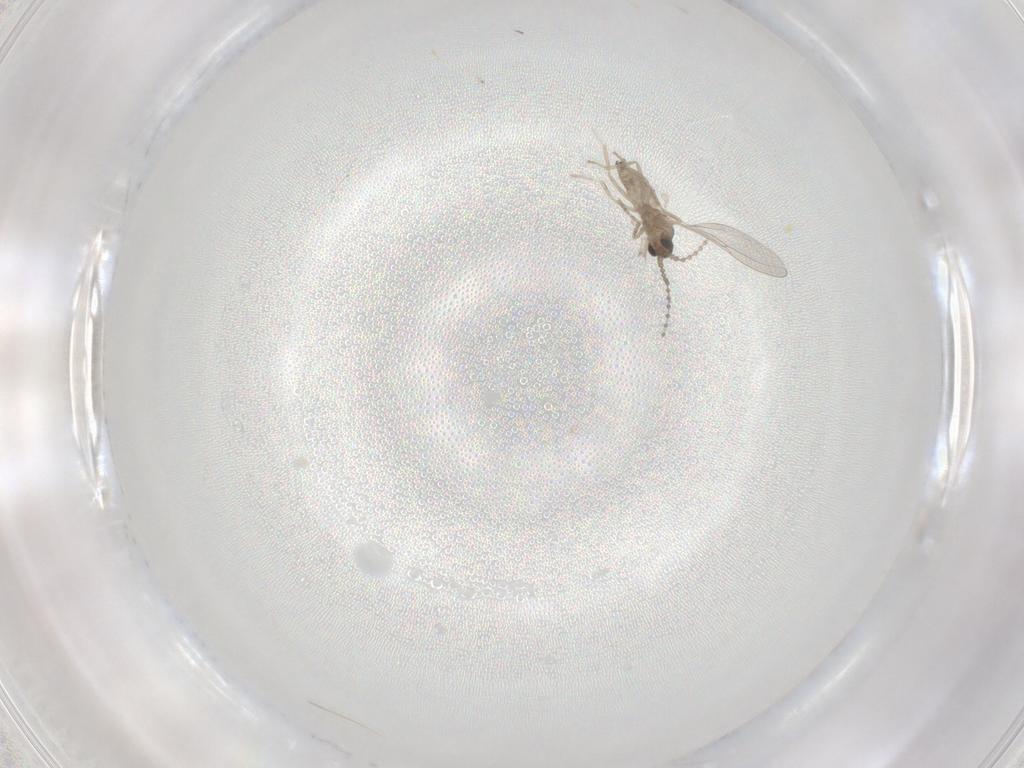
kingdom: Animalia
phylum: Arthropoda
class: Insecta
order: Diptera
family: Cecidomyiidae
